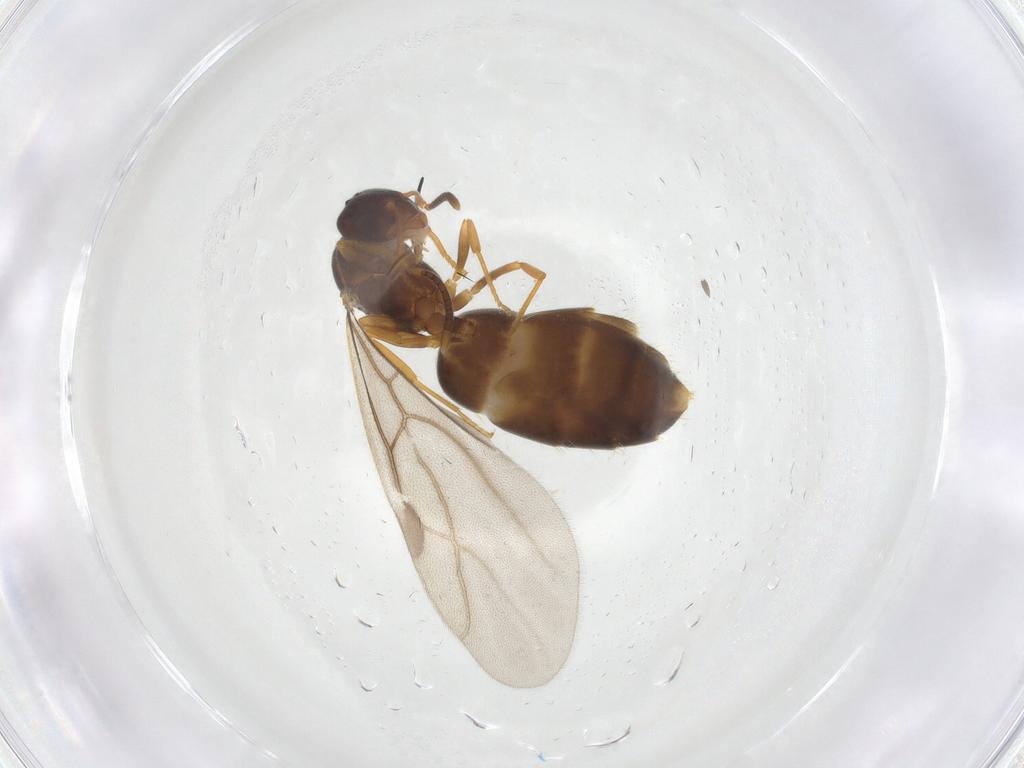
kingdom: Animalia
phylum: Arthropoda
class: Insecta
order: Hymenoptera
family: Formicidae
